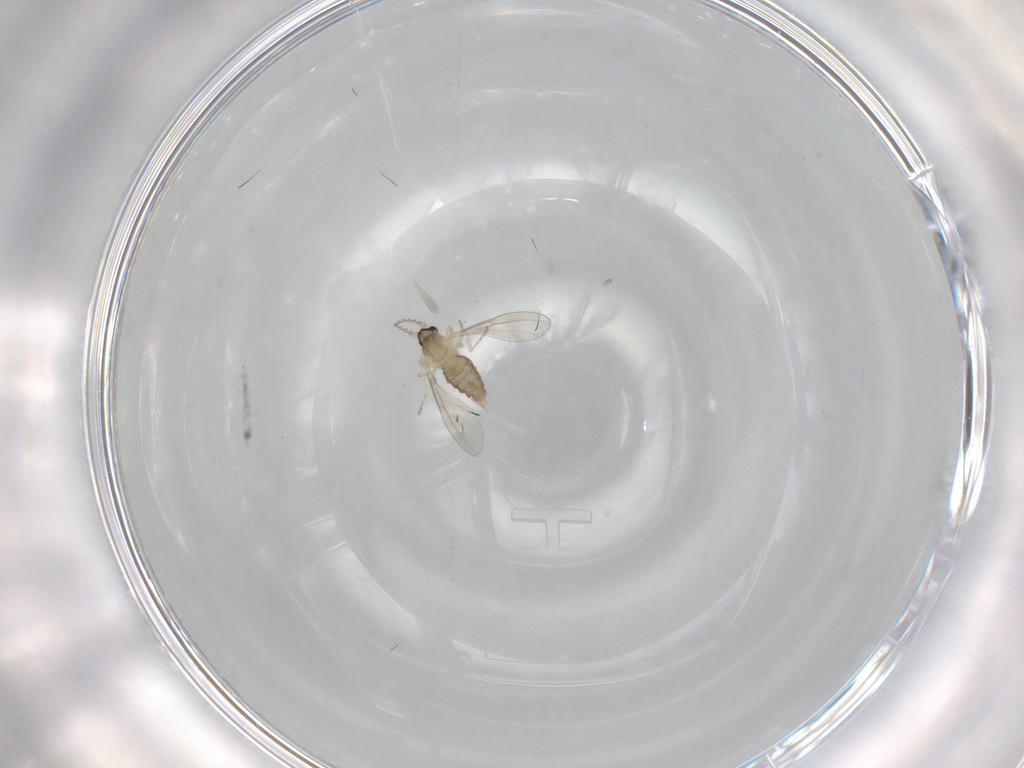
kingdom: Animalia
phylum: Arthropoda
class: Insecta
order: Diptera
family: Cecidomyiidae
